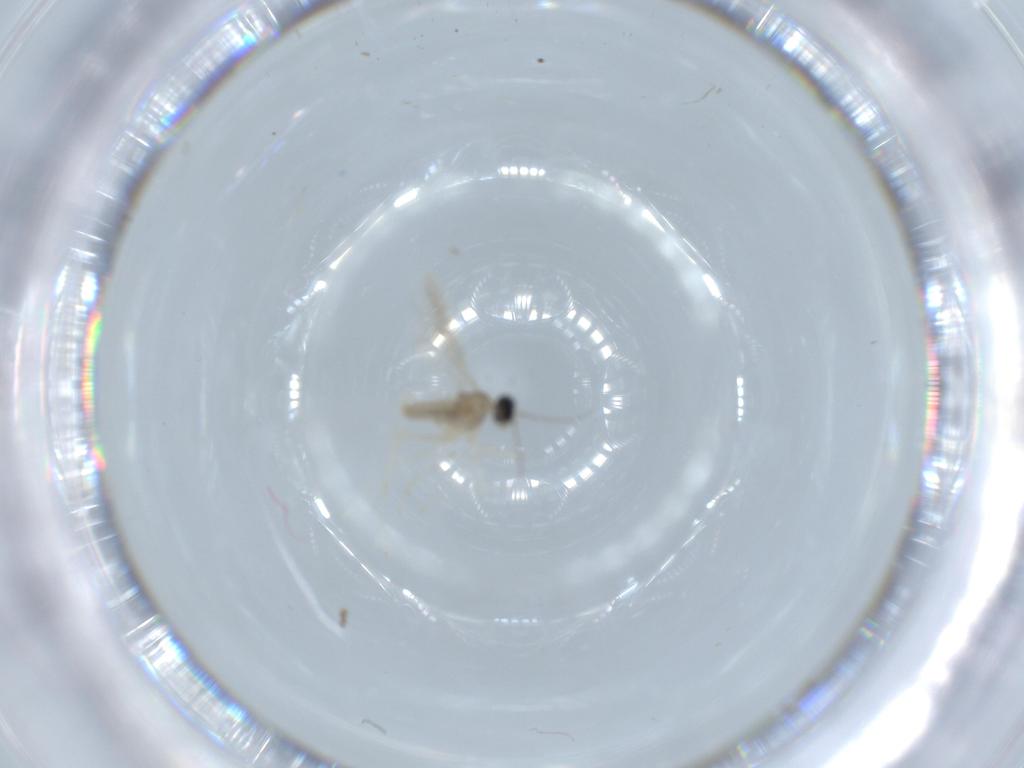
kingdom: Animalia
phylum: Arthropoda
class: Insecta
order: Diptera
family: Cecidomyiidae
